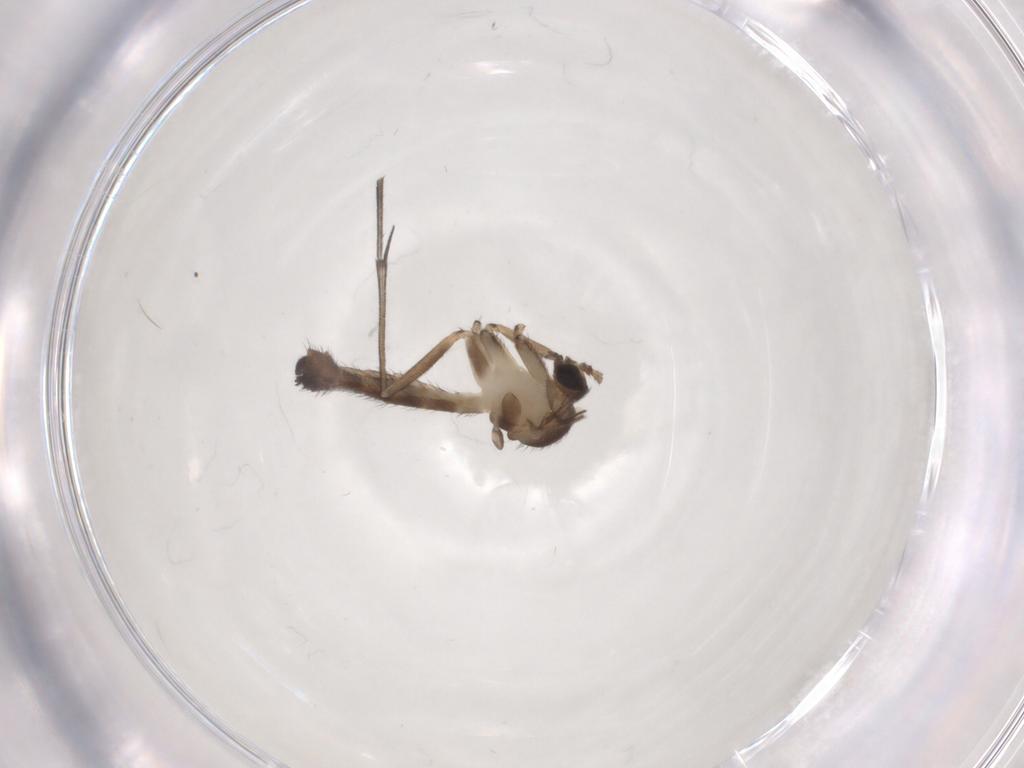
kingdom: Animalia
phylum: Arthropoda
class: Insecta
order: Diptera
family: Keroplatidae
